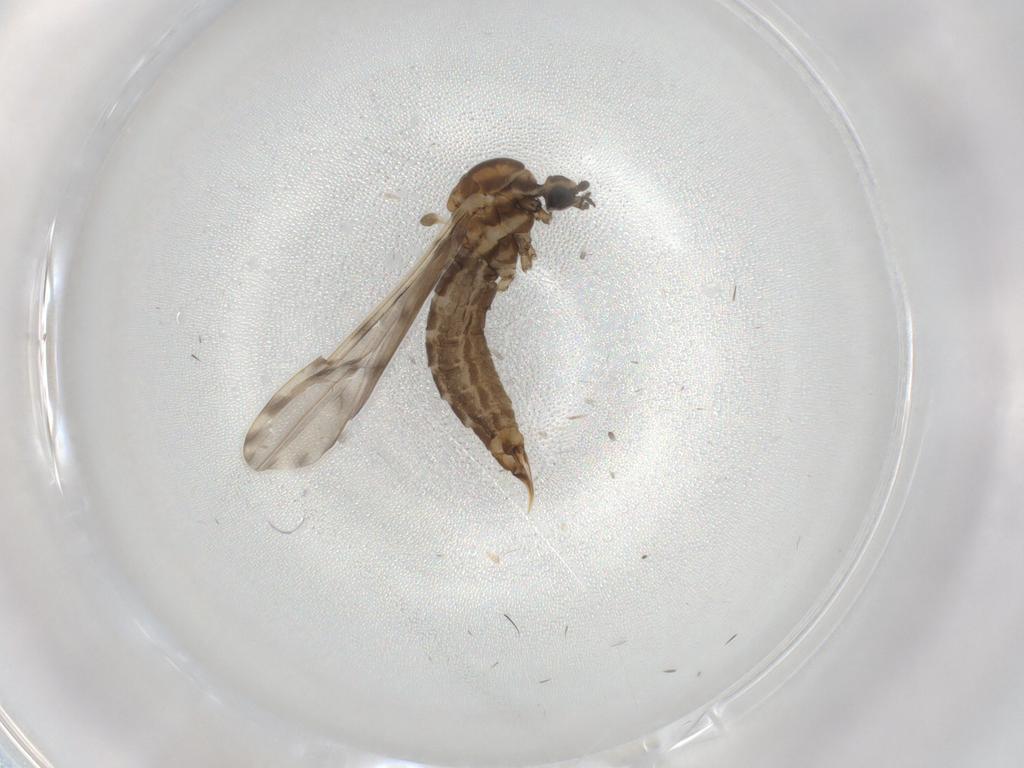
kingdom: Animalia
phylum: Arthropoda
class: Insecta
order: Diptera
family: Limoniidae
